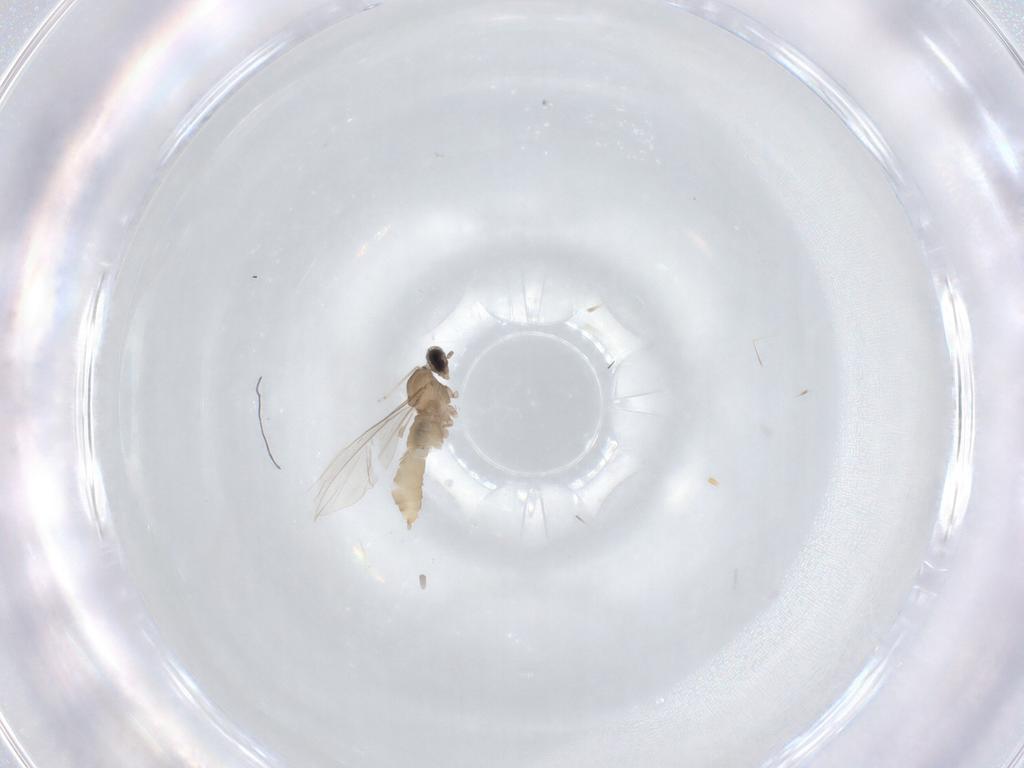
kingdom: Animalia
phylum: Arthropoda
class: Insecta
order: Diptera
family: Cecidomyiidae
